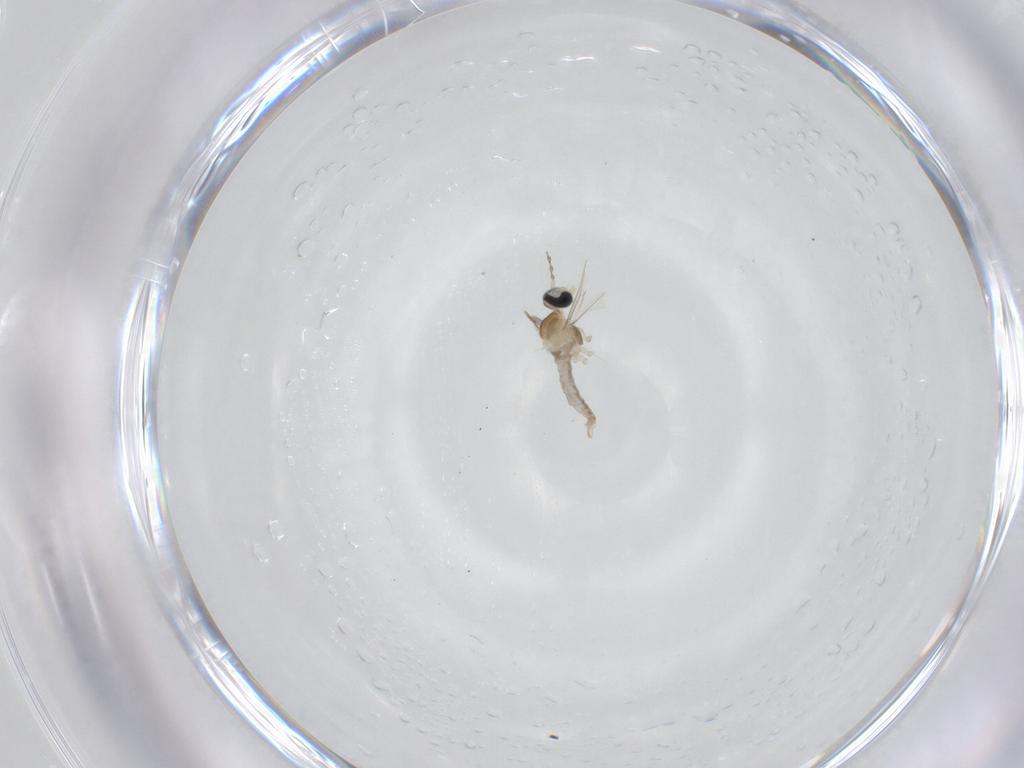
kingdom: Animalia
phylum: Arthropoda
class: Insecta
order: Diptera
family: Cecidomyiidae
